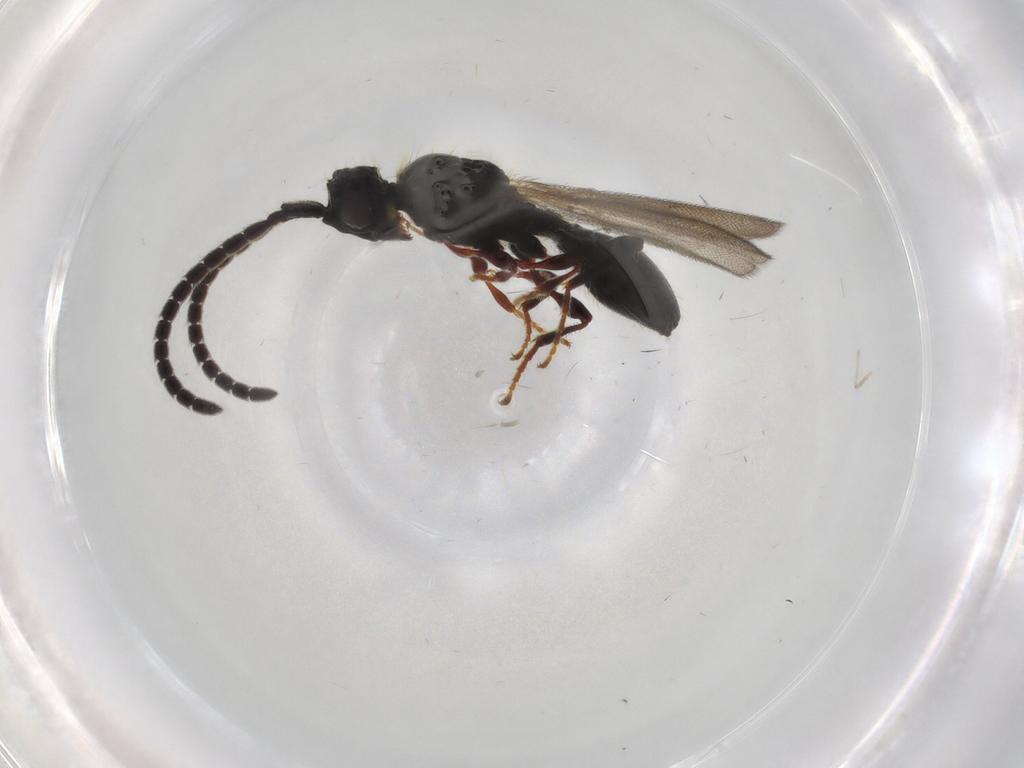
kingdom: Animalia
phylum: Arthropoda
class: Insecta
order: Hymenoptera
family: Diapriidae
